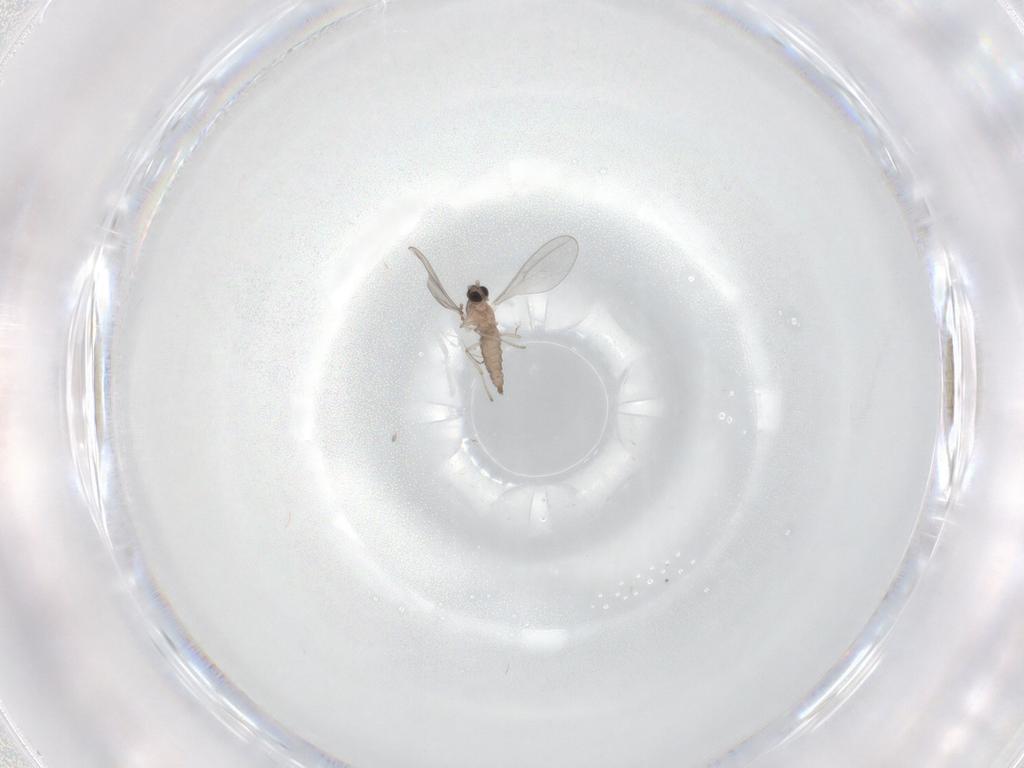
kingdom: Animalia
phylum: Arthropoda
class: Insecta
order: Diptera
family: Cecidomyiidae
